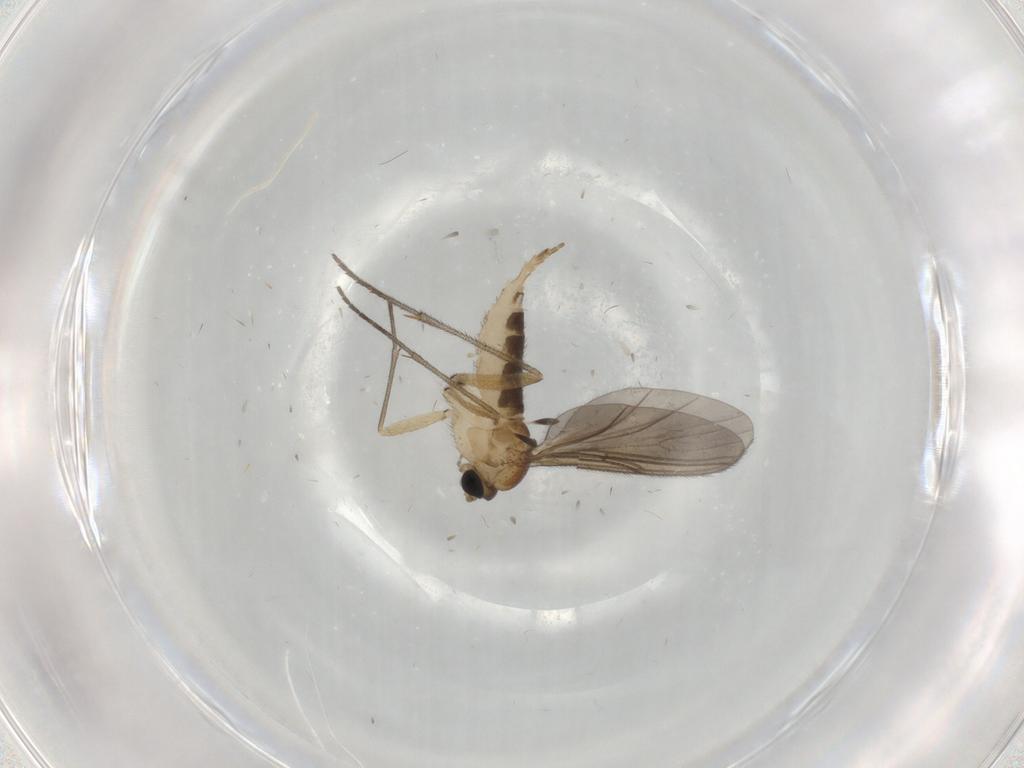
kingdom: Animalia
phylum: Arthropoda
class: Insecta
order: Diptera
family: Sciaridae
